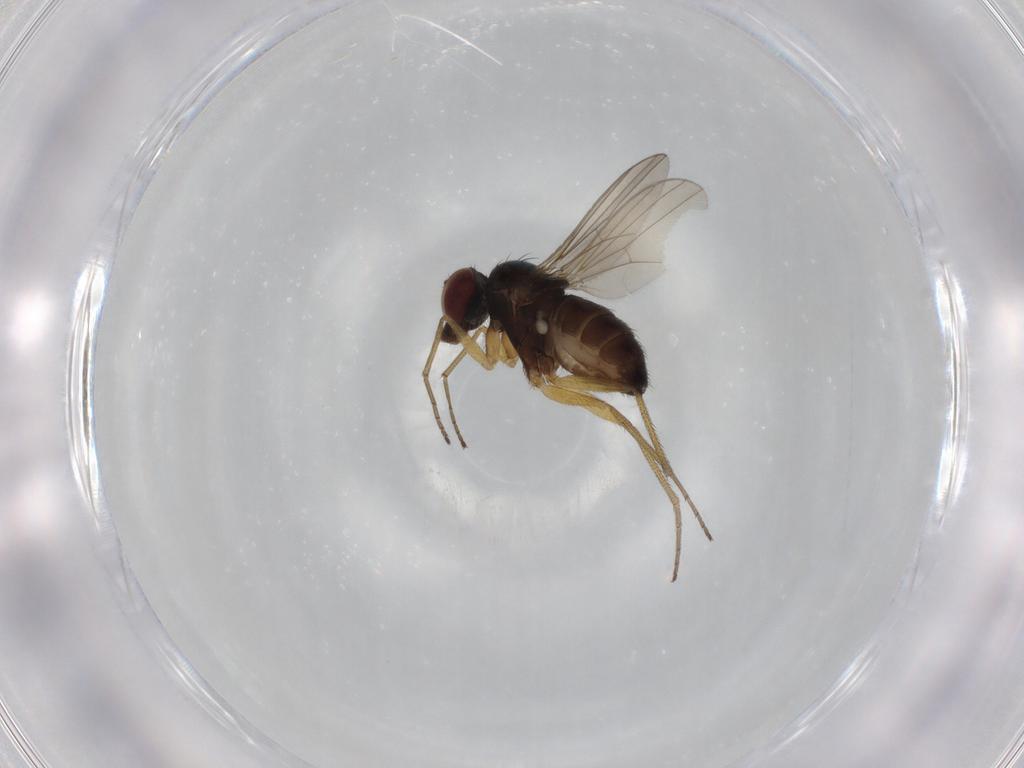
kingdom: Animalia
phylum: Arthropoda
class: Insecta
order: Diptera
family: Dolichopodidae
